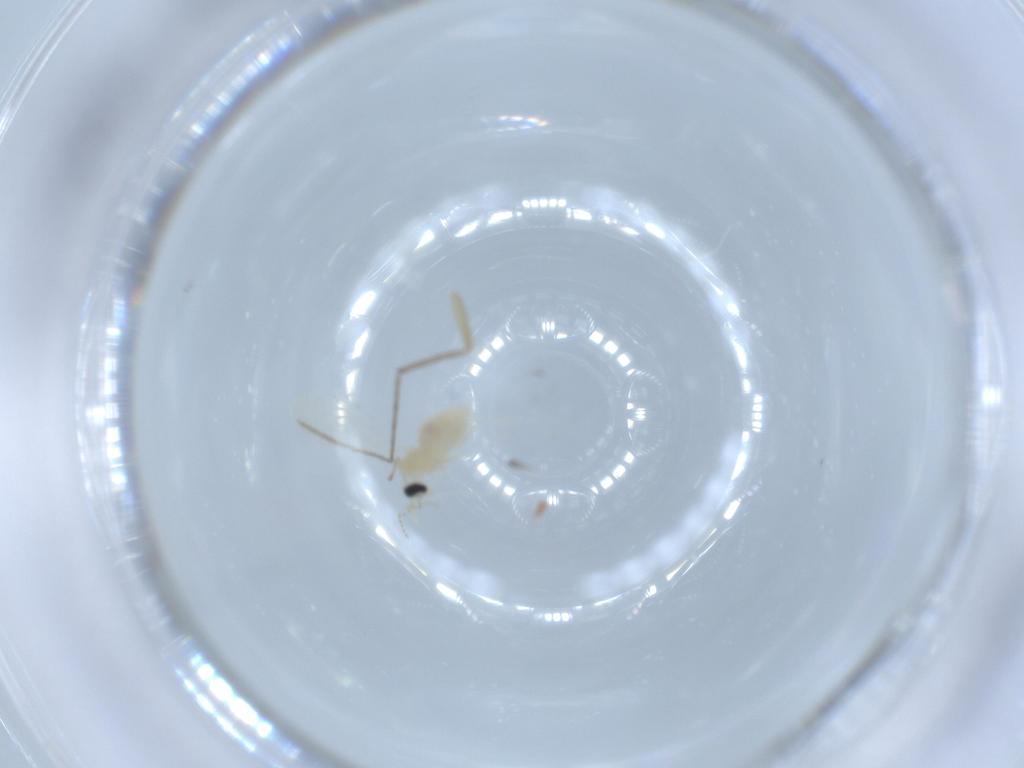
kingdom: Animalia
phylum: Arthropoda
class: Insecta
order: Diptera
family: Cecidomyiidae
